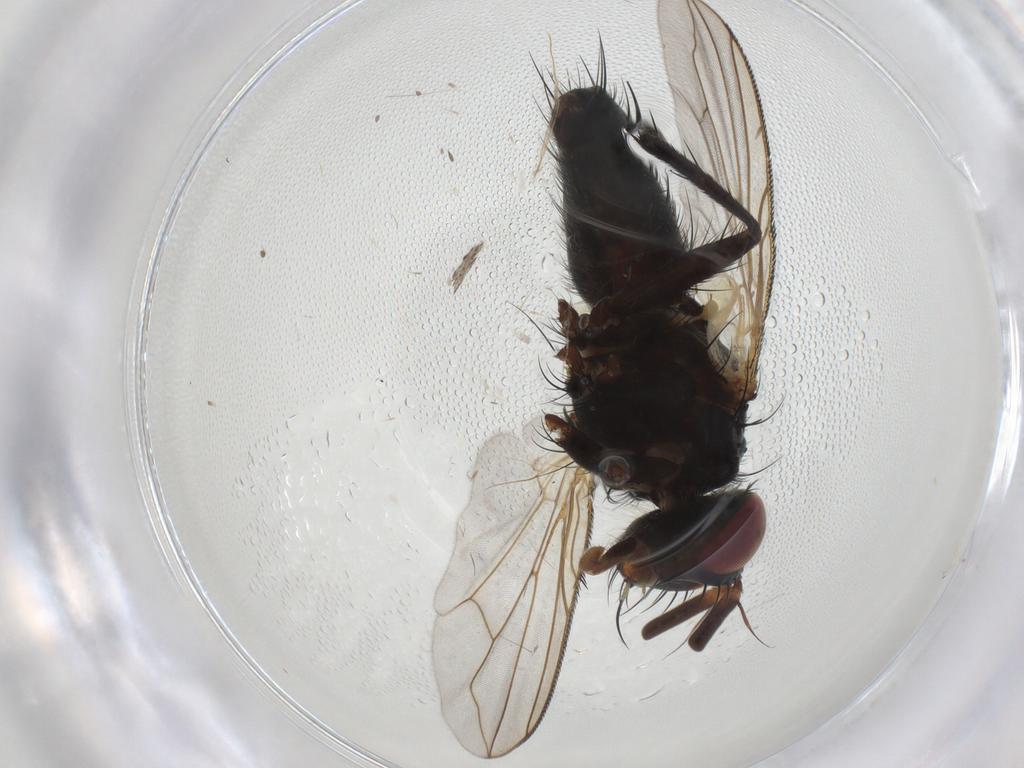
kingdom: Animalia
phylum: Arthropoda
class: Insecta
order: Diptera
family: Tachinidae
